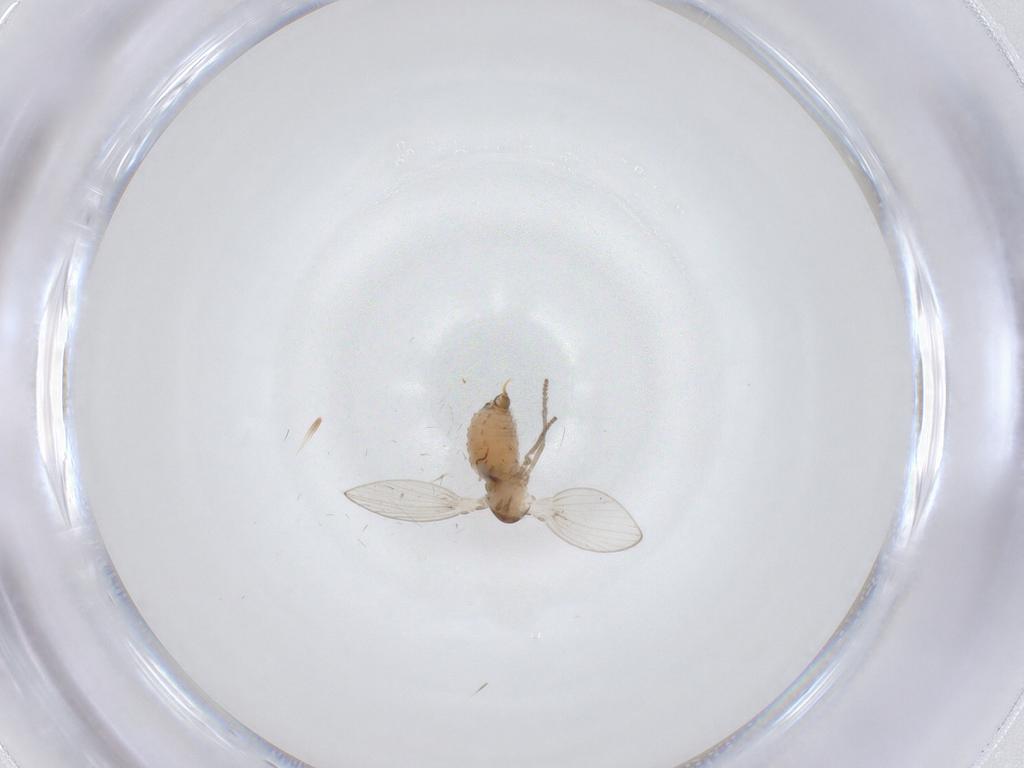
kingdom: Animalia
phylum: Arthropoda
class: Insecta
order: Diptera
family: Psychodidae
